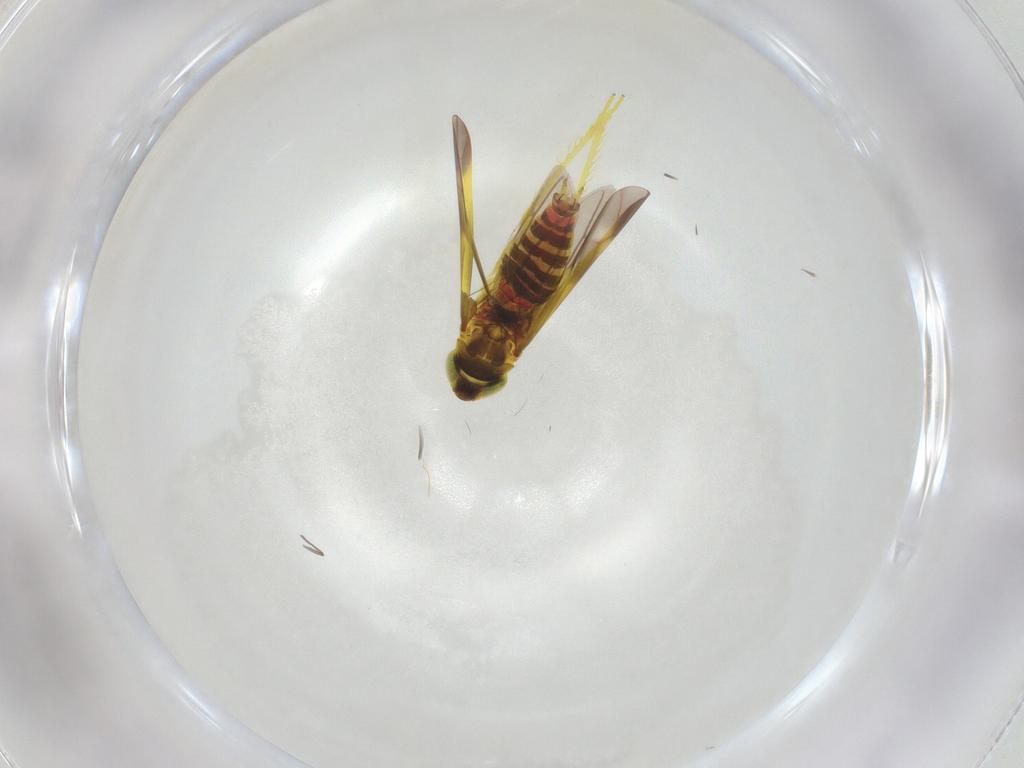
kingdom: Animalia
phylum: Arthropoda
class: Insecta
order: Hemiptera
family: Cicadellidae
